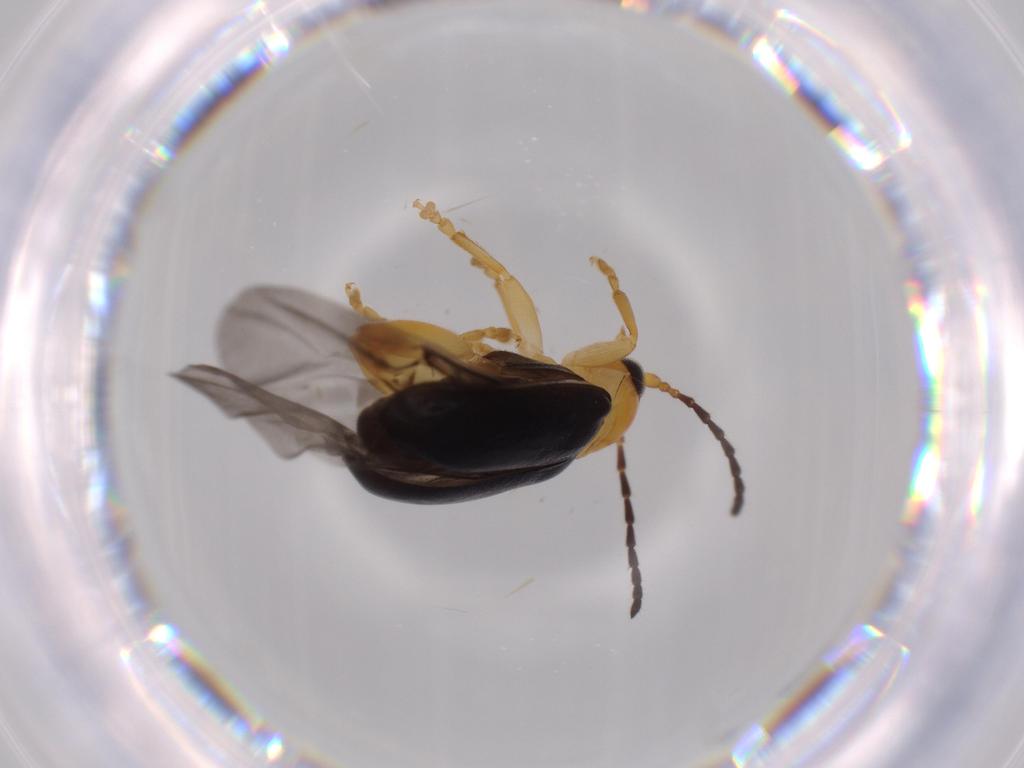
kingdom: Animalia
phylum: Arthropoda
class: Insecta
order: Coleoptera
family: Chrysomelidae
